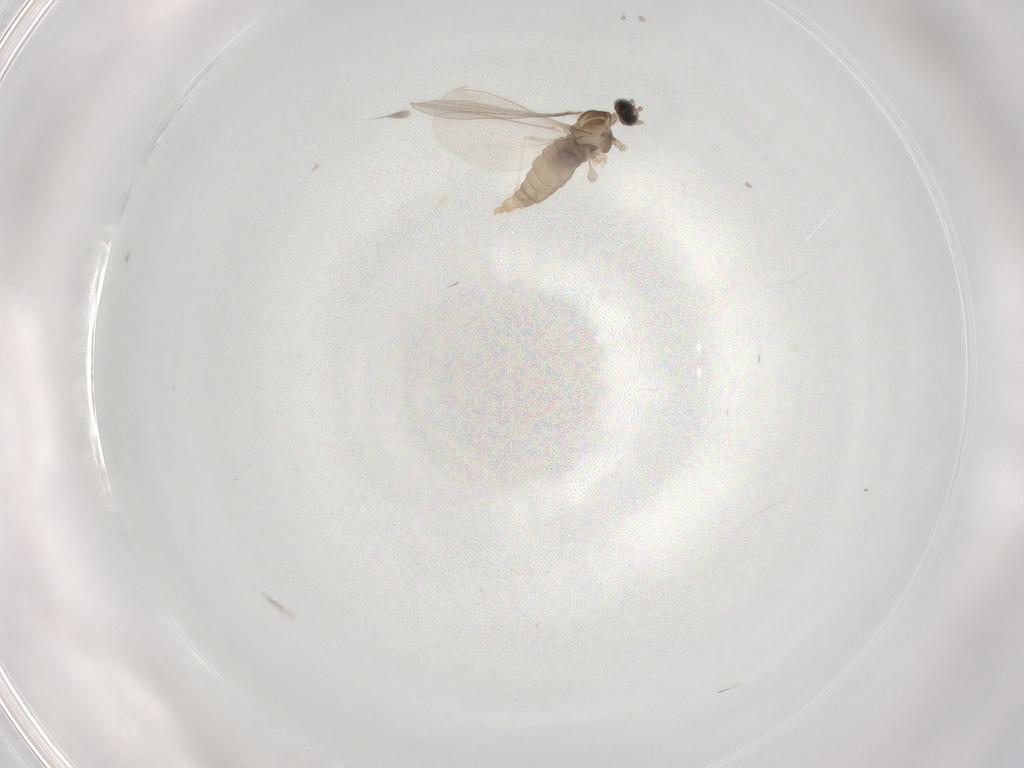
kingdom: Animalia
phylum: Arthropoda
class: Insecta
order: Diptera
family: Cecidomyiidae
